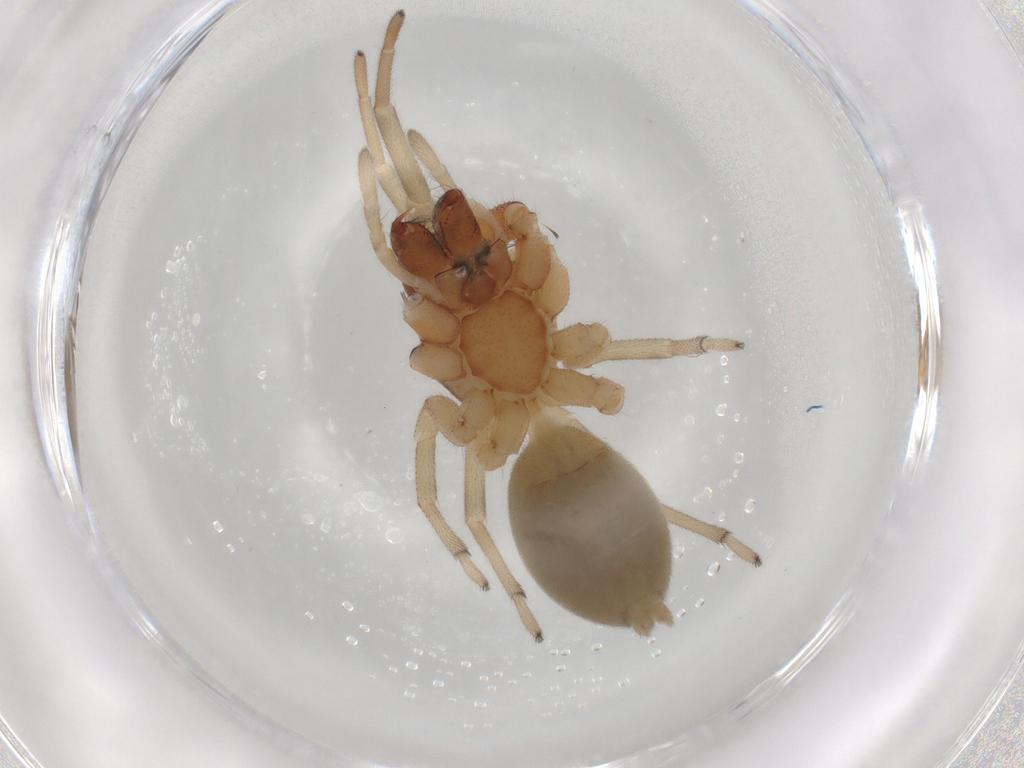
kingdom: Animalia
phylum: Arthropoda
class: Arachnida
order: Araneae
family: Trachelidae
